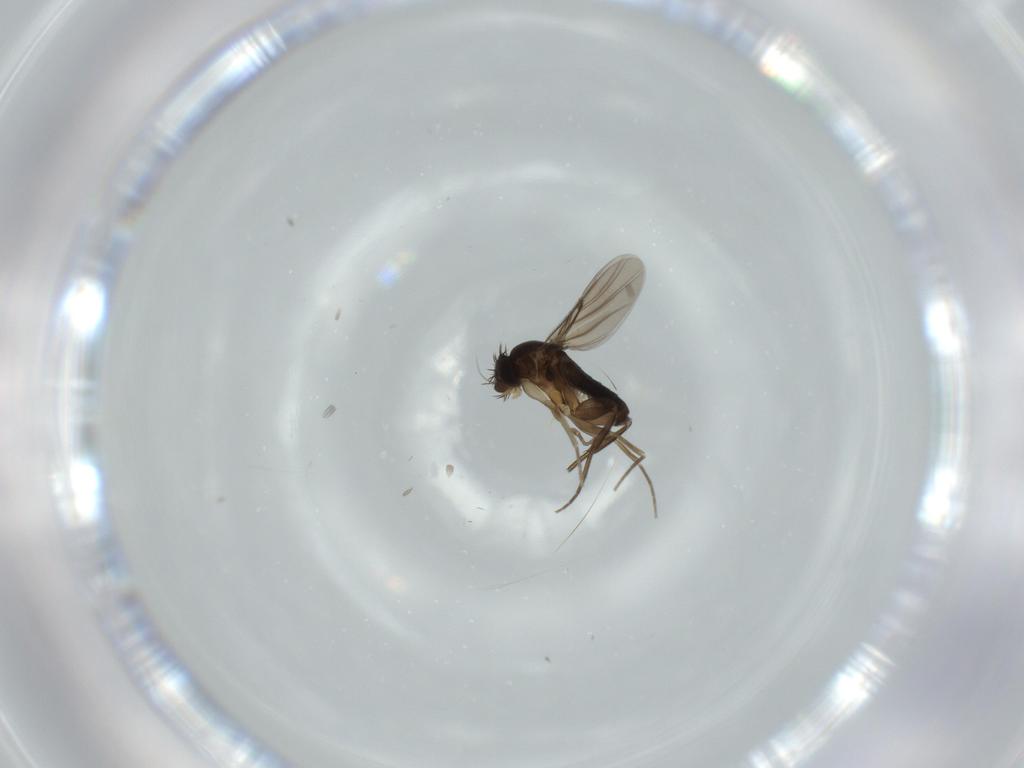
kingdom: Animalia
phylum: Arthropoda
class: Insecta
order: Diptera
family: Phoridae
